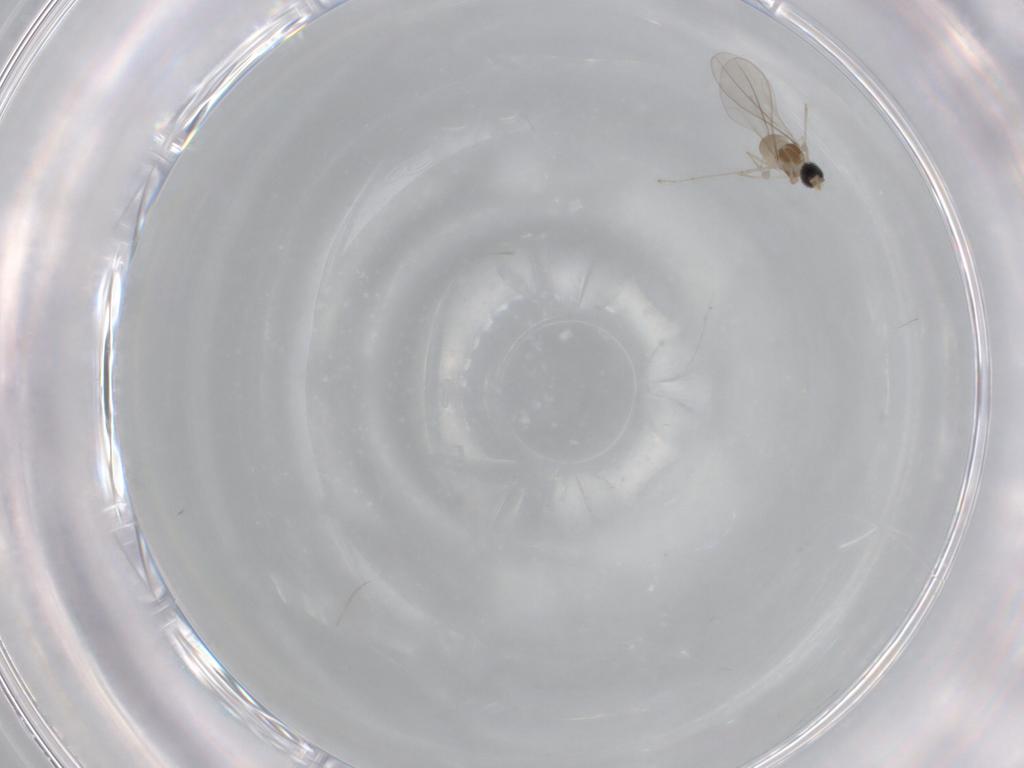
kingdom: Animalia
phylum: Arthropoda
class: Insecta
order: Diptera
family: Cecidomyiidae
